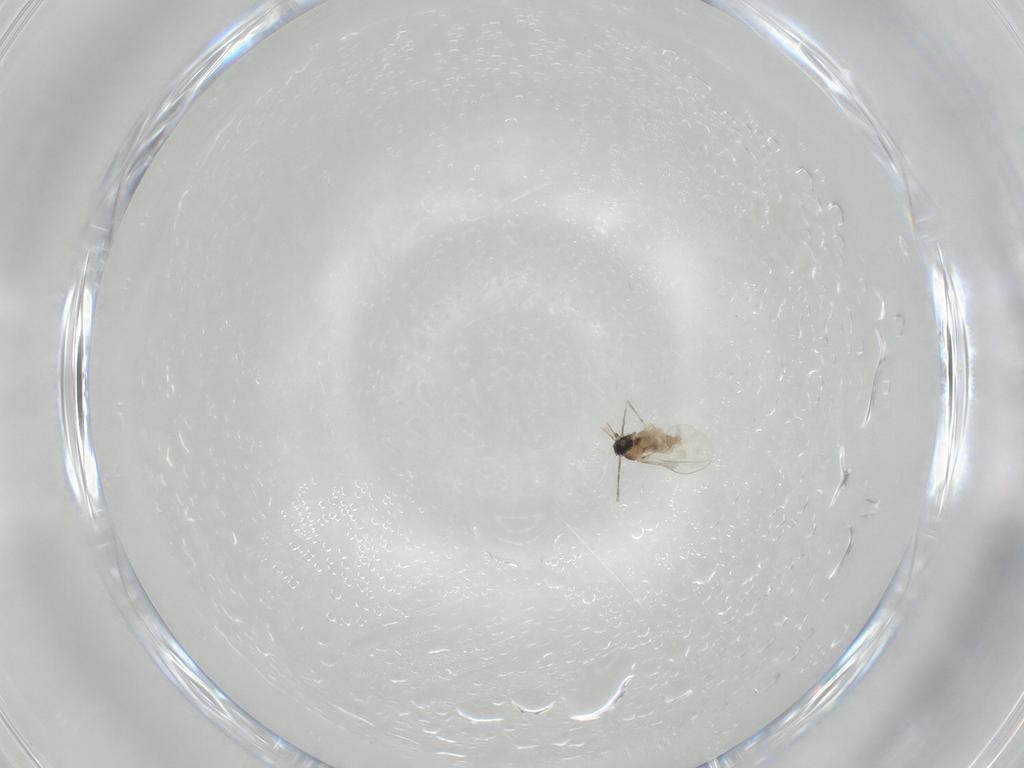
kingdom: Animalia
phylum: Arthropoda
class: Insecta
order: Diptera
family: Cecidomyiidae
